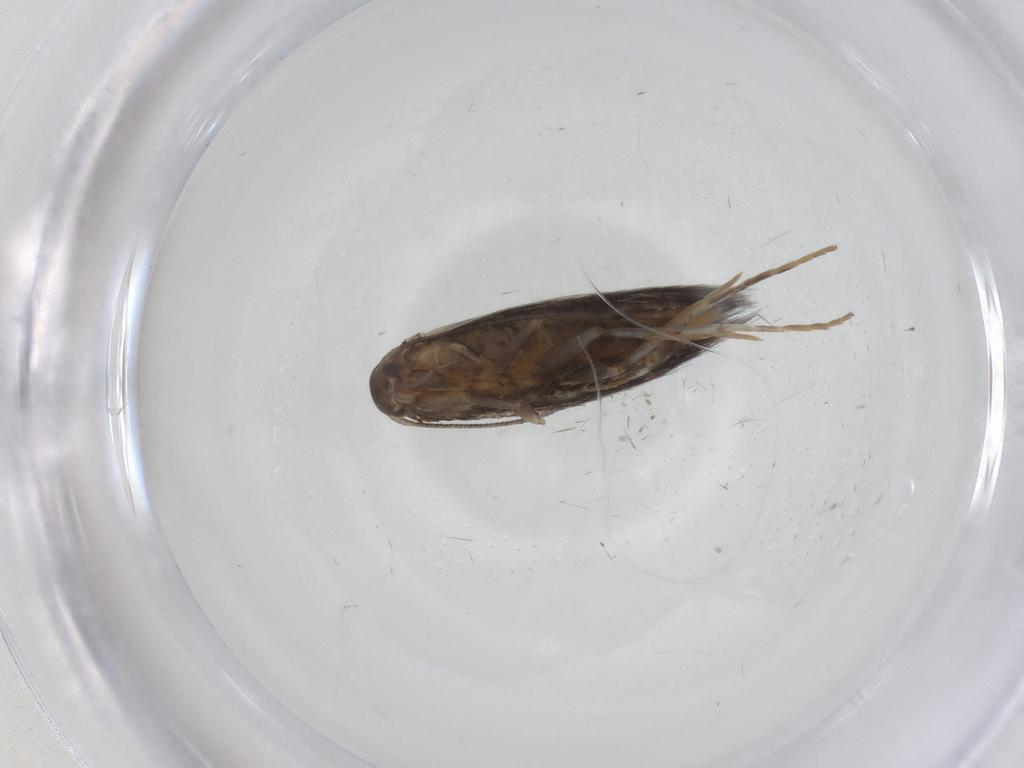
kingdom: Animalia
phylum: Arthropoda
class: Insecta
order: Lepidoptera
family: Elachistidae
